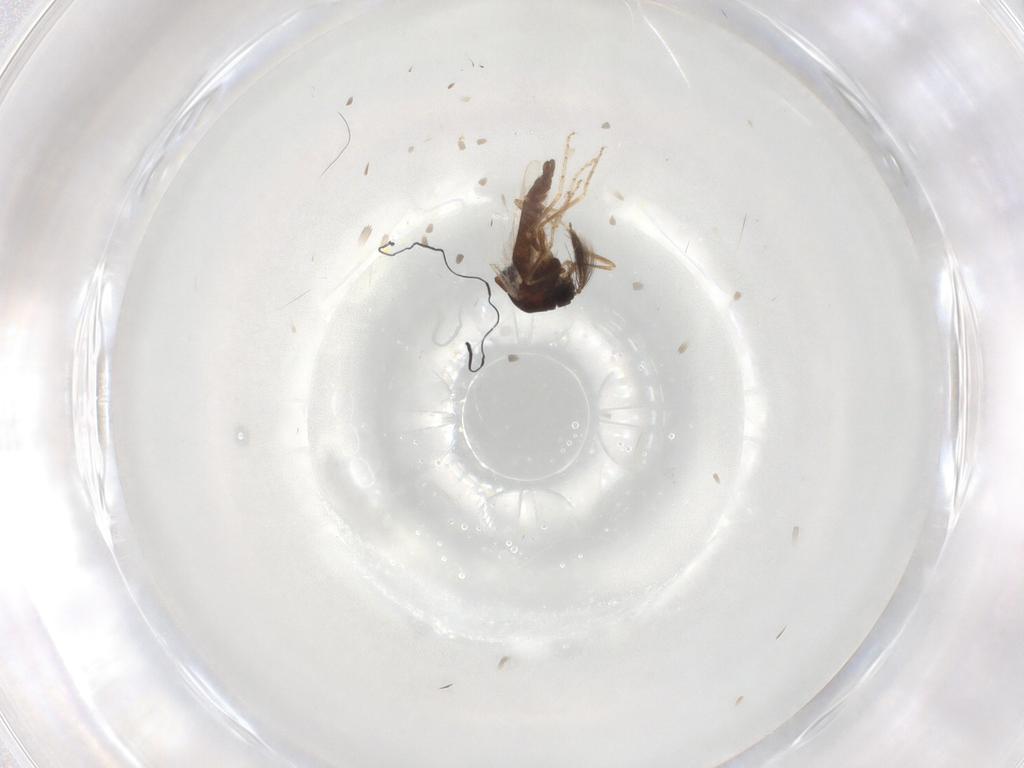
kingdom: Animalia
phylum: Arthropoda
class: Insecta
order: Diptera
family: Ceratopogonidae
